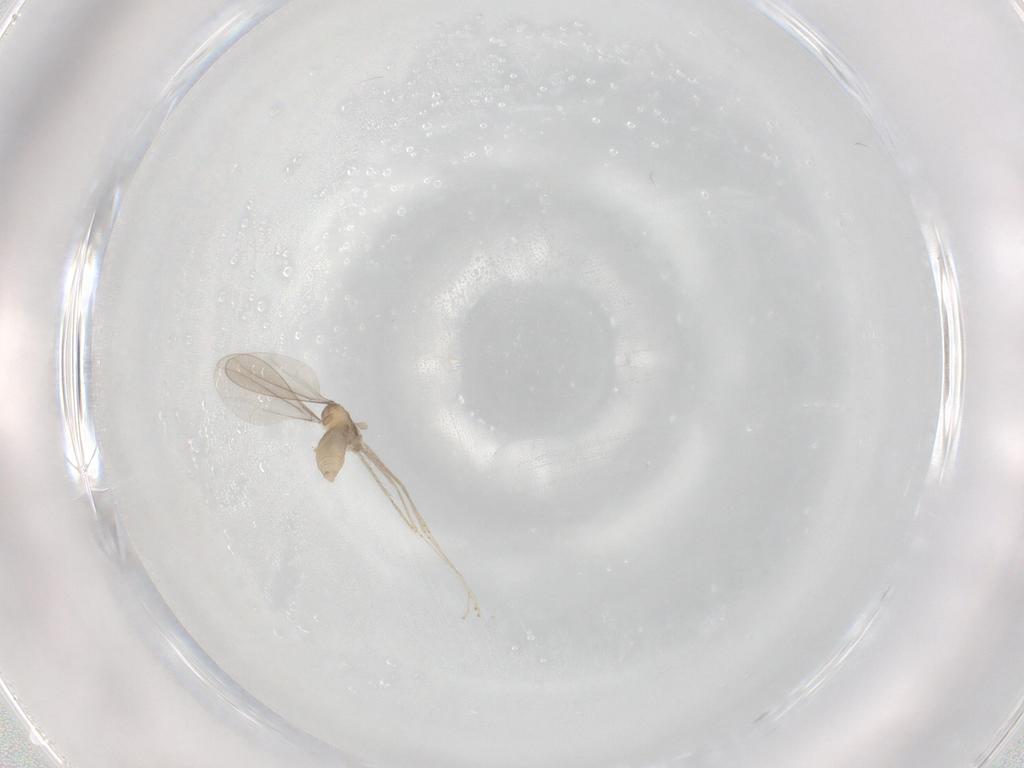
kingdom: Animalia
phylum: Arthropoda
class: Insecta
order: Diptera
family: Cecidomyiidae
